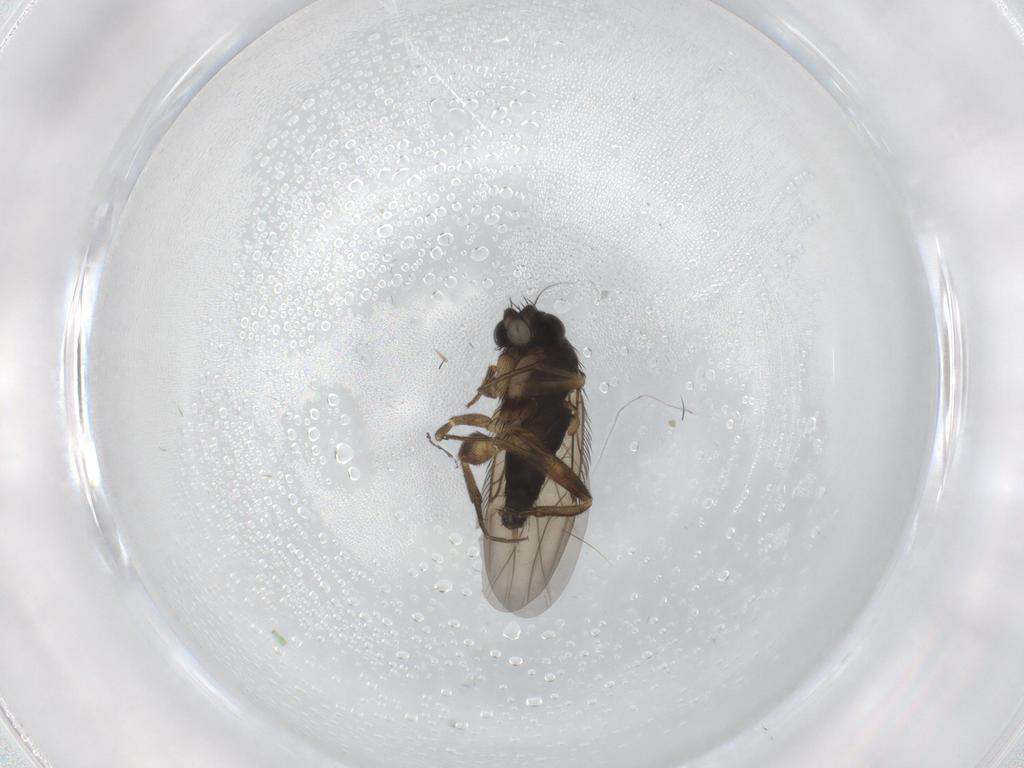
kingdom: Animalia
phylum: Arthropoda
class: Insecta
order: Diptera
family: Phoridae
